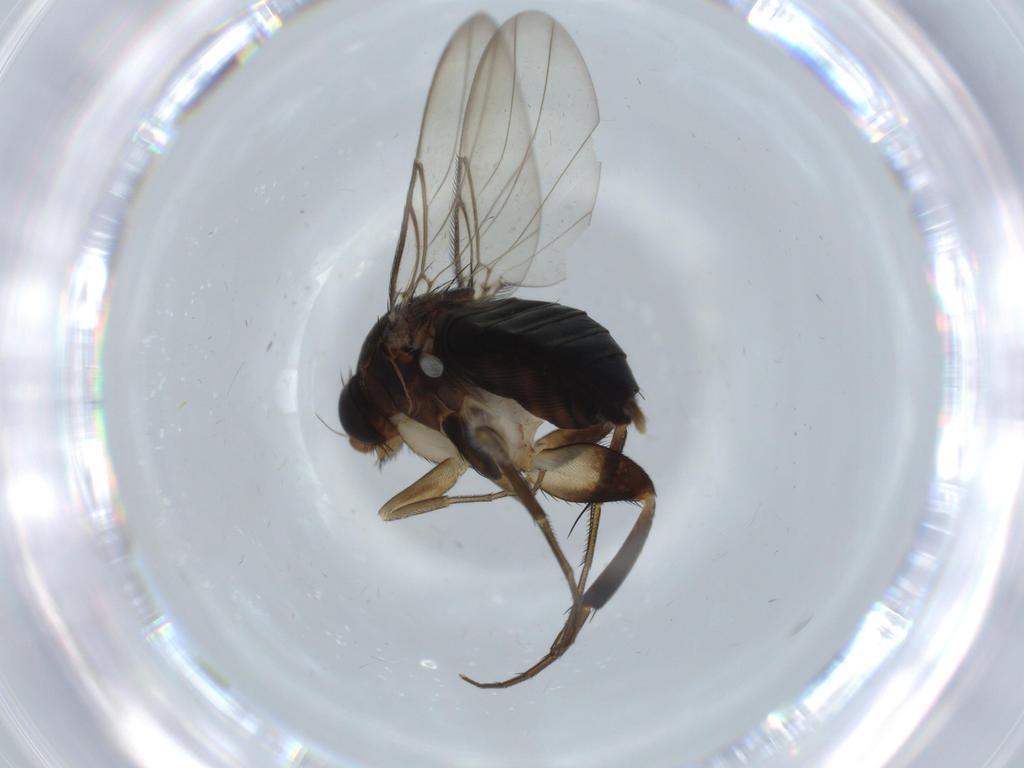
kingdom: Animalia
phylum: Arthropoda
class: Insecta
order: Diptera
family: Phoridae
